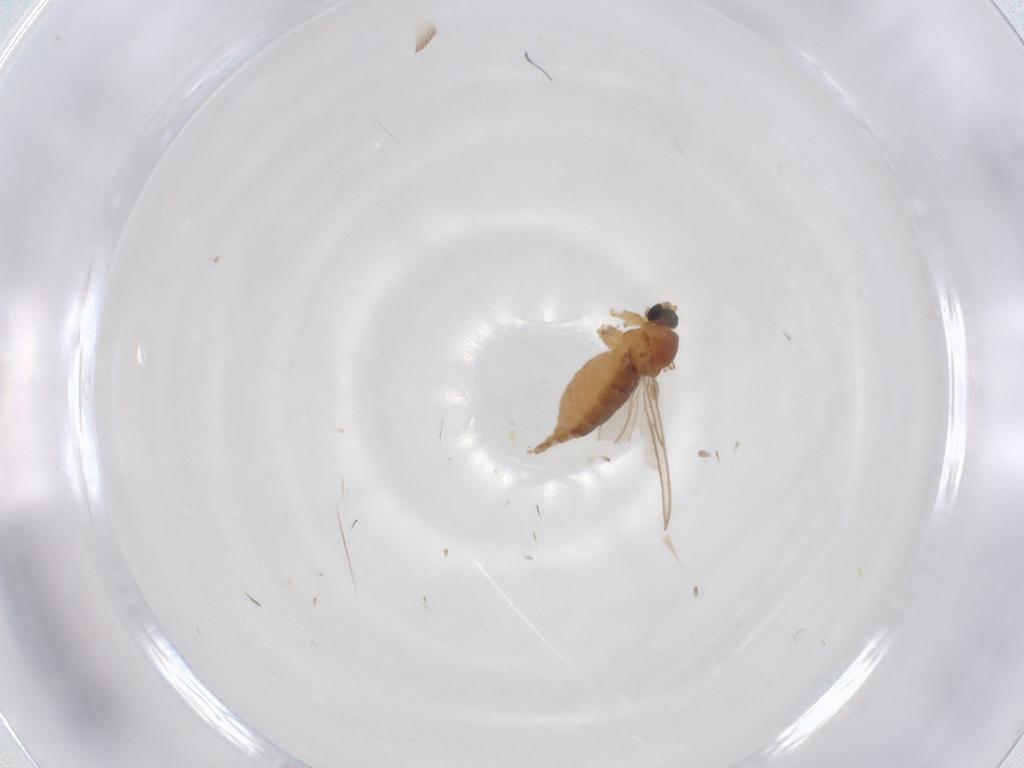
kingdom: Animalia
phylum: Arthropoda
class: Insecta
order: Diptera
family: Sciaridae
